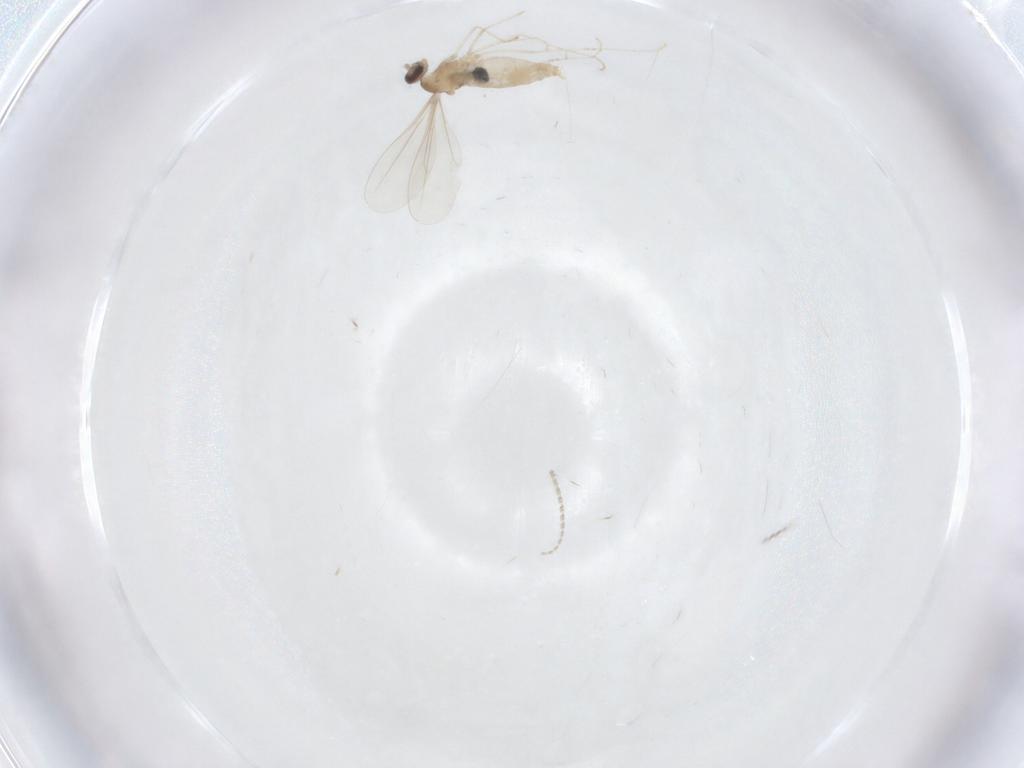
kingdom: Animalia
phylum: Arthropoda
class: Insecta
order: Diptera
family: Cecidomyiidae
